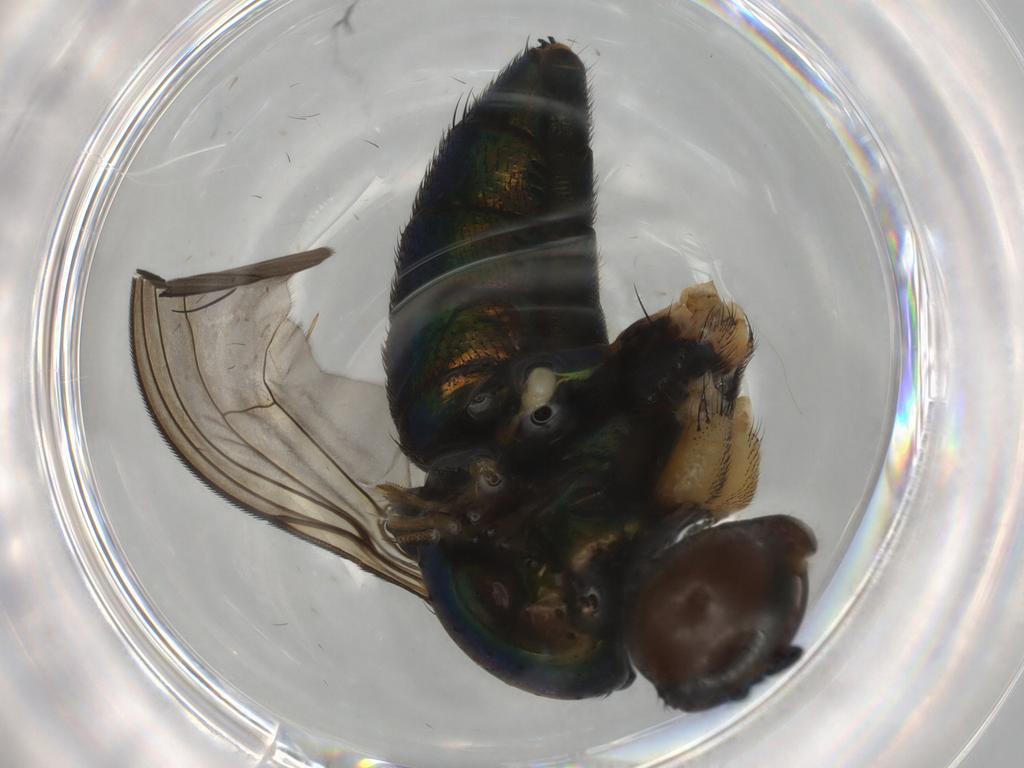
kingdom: Animalia
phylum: Arthropoda
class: Insecta
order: Diptera
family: Dolichopodidae
